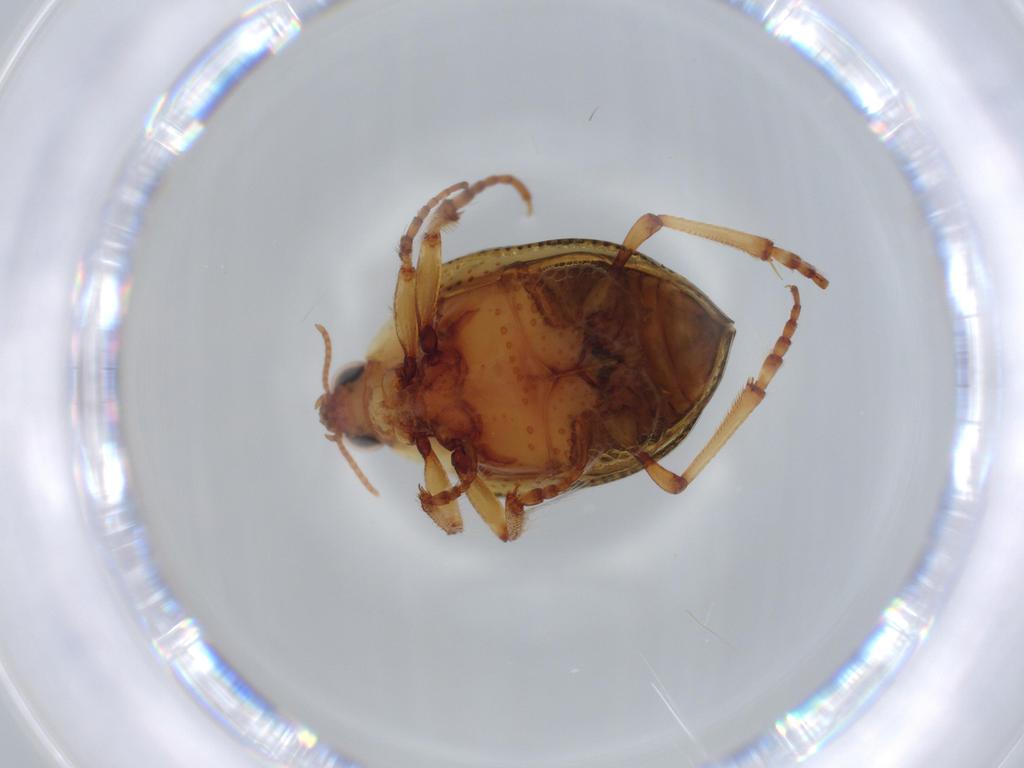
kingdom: Animalia
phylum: Arthropoda
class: Insecta
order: Coleoptera
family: Haliplidae
